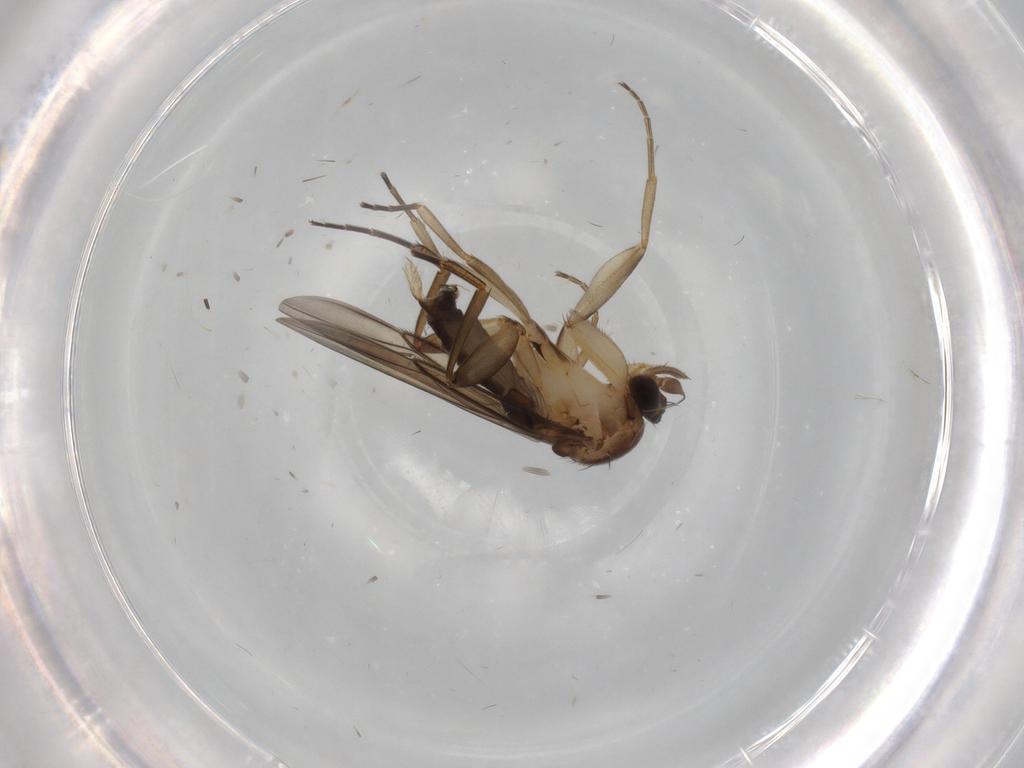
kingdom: Animalia
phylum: Arthropoda
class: Insecta
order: Diptera
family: Phoridae
